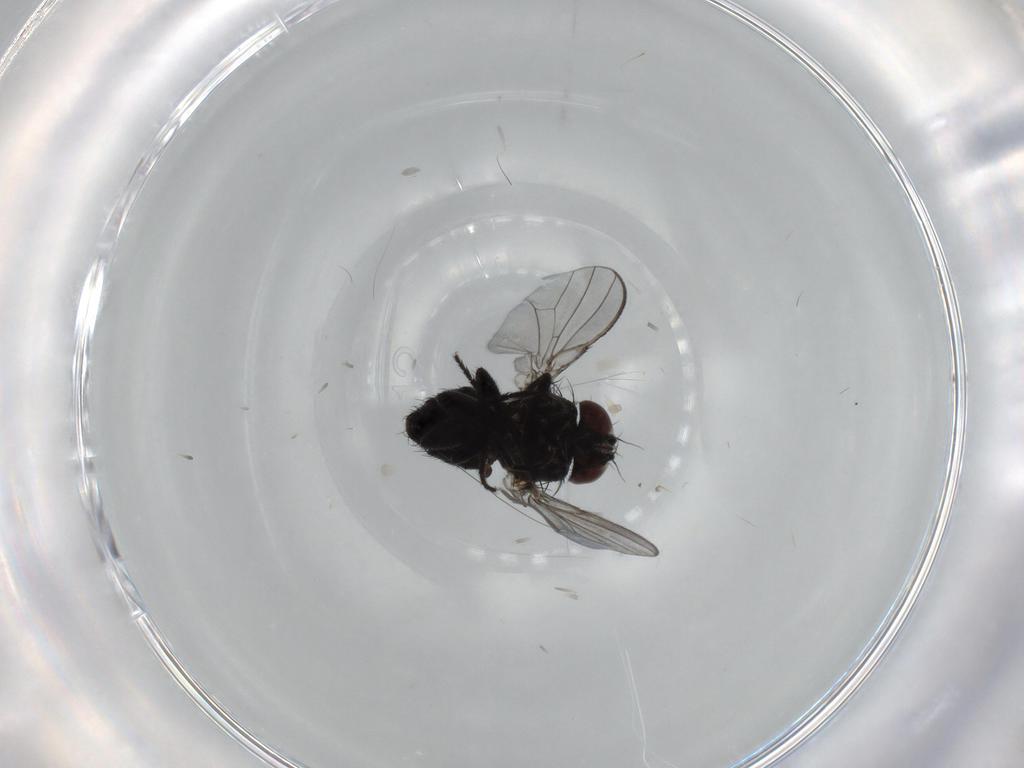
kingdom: Animalia
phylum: Arthropoda
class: Insecta
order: Diptera
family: Milichiidae
